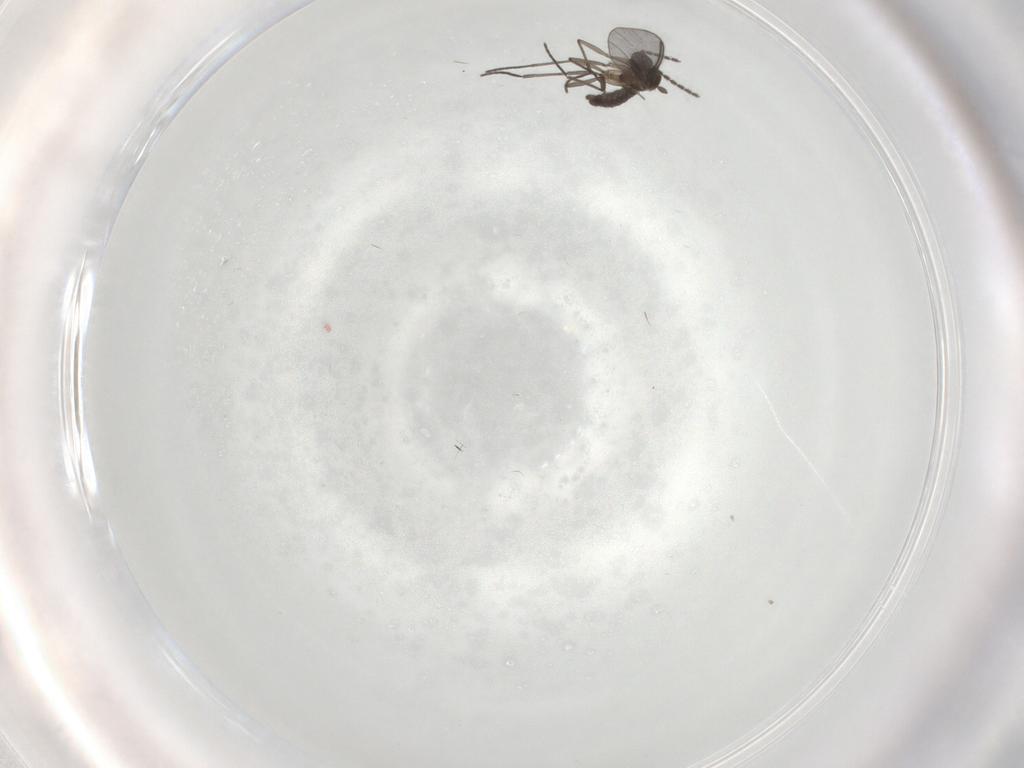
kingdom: Animalia
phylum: Arthropoda
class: Insecta
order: Diptera
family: Sciaridae
